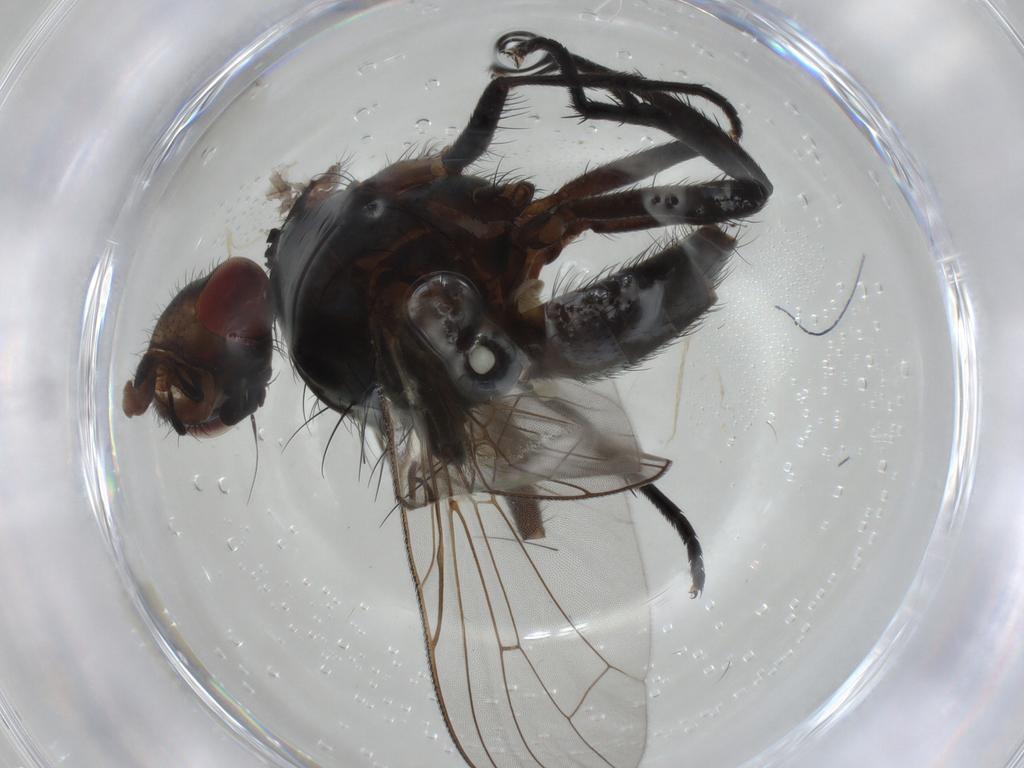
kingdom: Animalia
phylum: Arthropoda
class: Insecta
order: Diptera
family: Anthomyiidae
